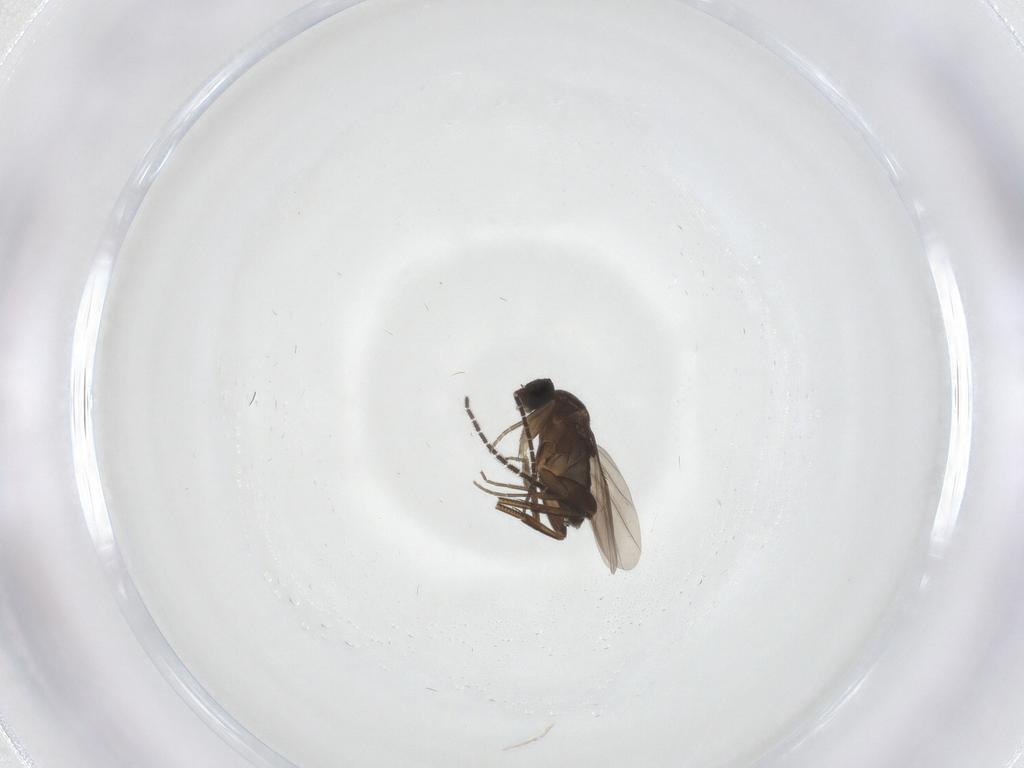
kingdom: Animalia
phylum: Arthropoda
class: Insecta
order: Diptera
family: Phoridae
